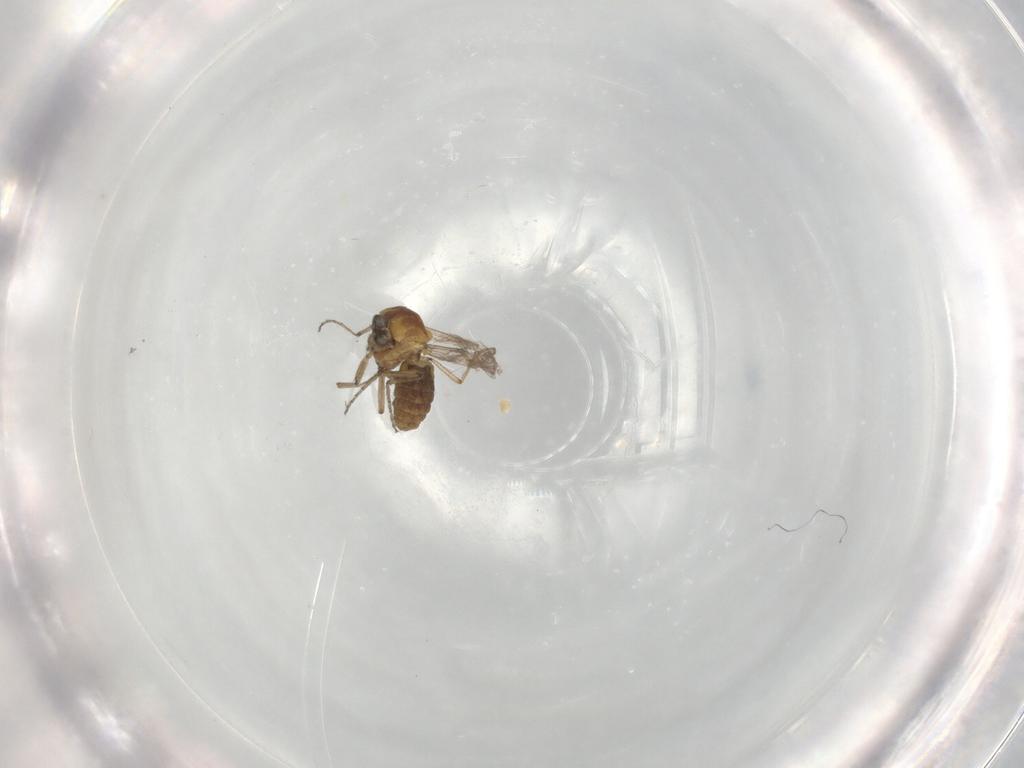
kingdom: Animalia
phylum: Arthropoda
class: Insecta
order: Diptera
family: Ceratopogonidae
